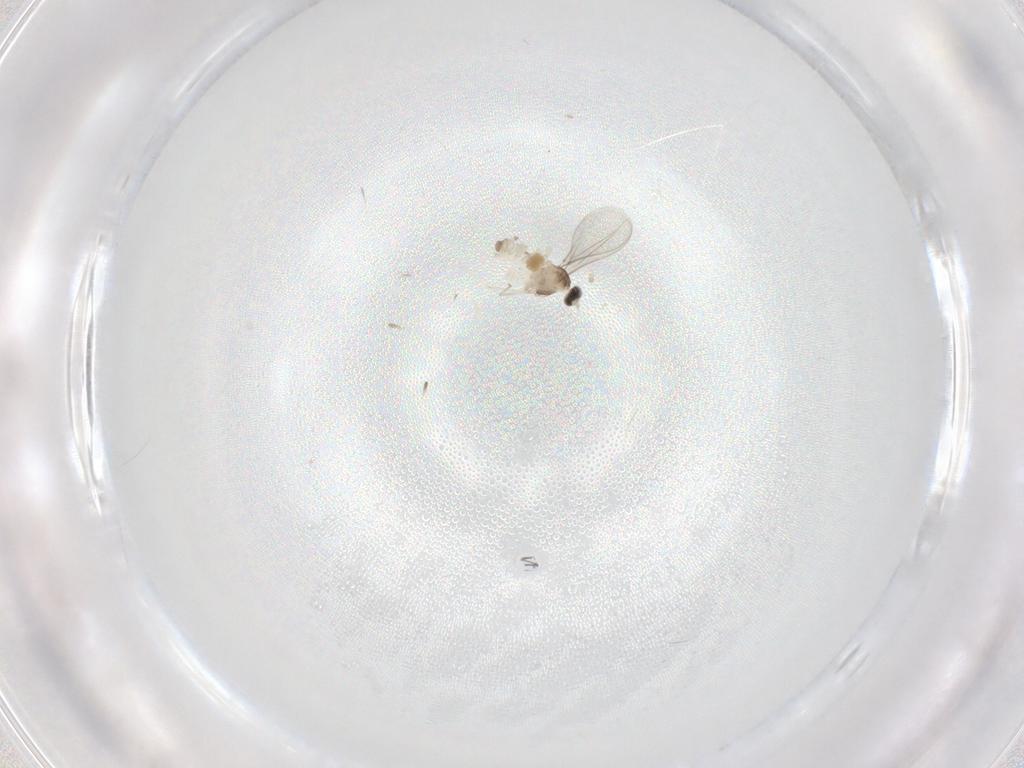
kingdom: Animalia
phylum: Arthropoda
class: Insecta
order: Diptera
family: Cecidomyiidae
